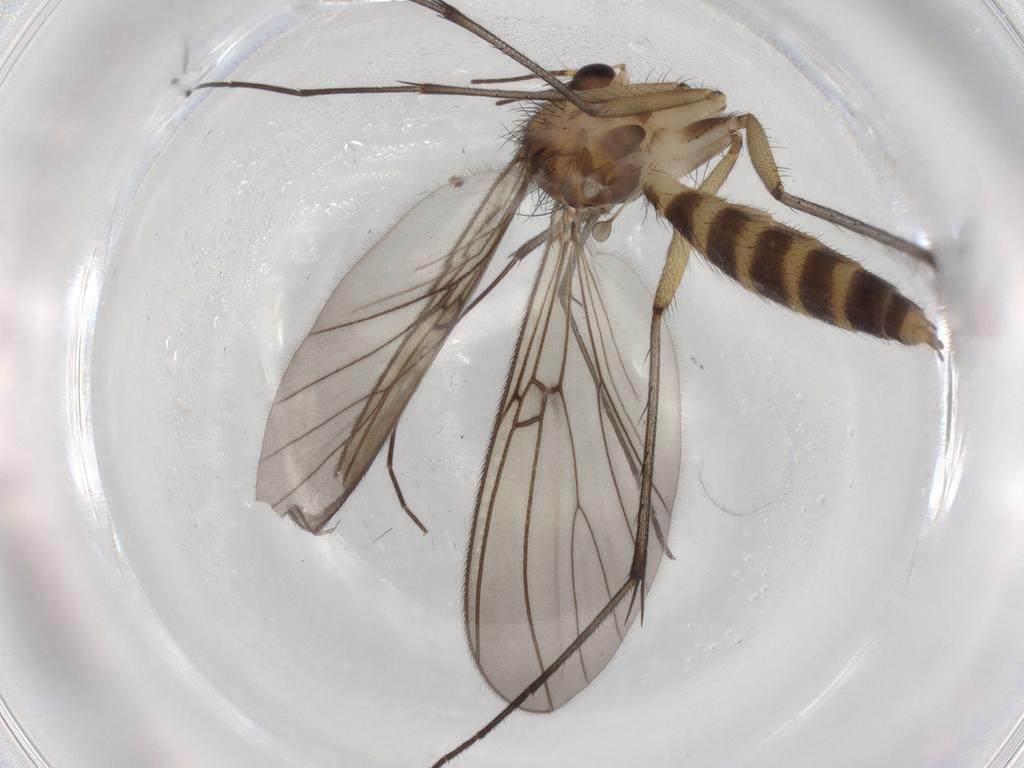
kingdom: Animalia
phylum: Arthropoda
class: Insecta
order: Diptera
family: Mycetophilidae
